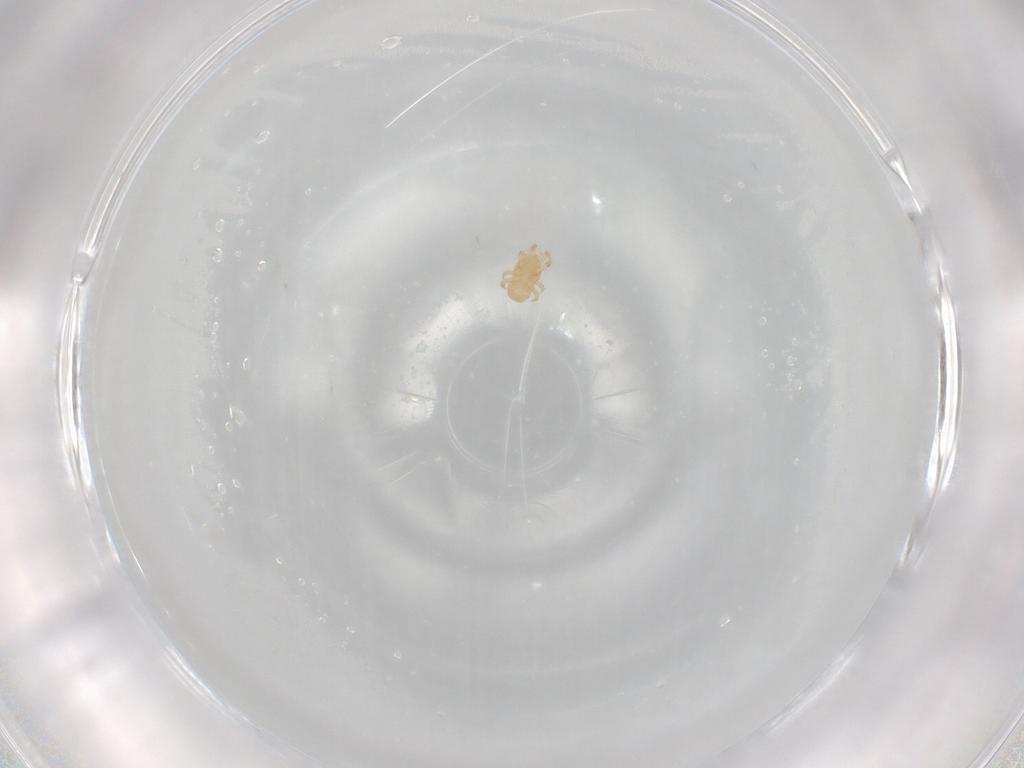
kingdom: Animalia
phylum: Arthropoda
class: Arachnida
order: Mesostigmata
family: Digamasellidae
